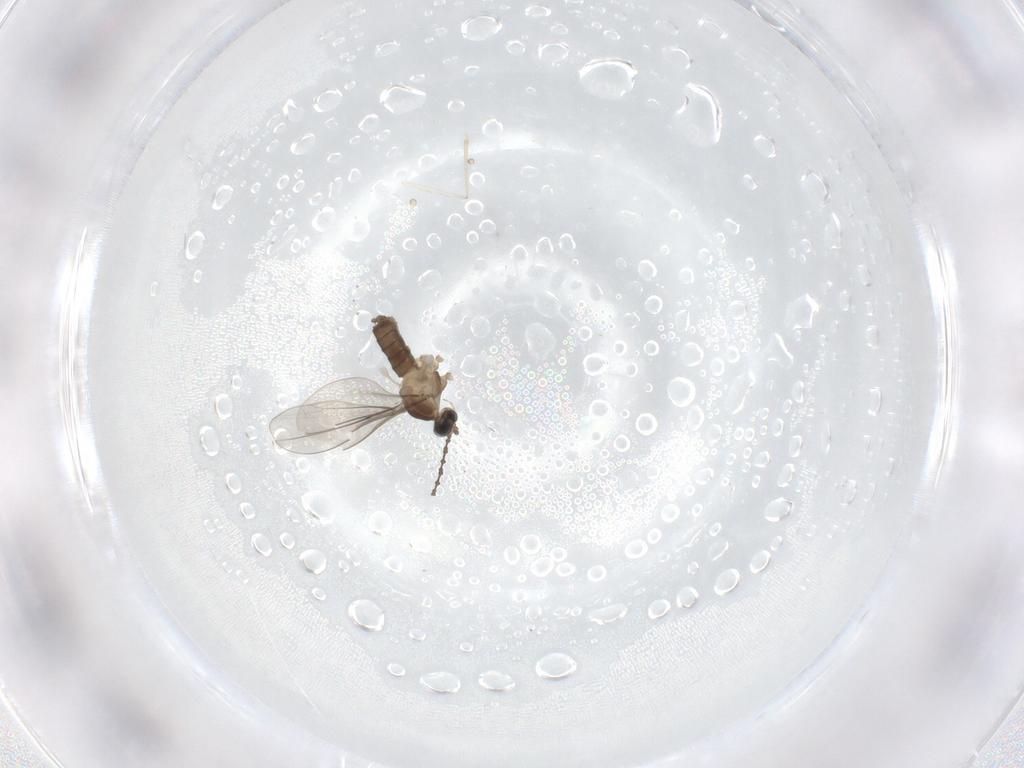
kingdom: Animalia
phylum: Arthropoda
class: Insecta
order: Diptera
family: Cecidomyiidae
